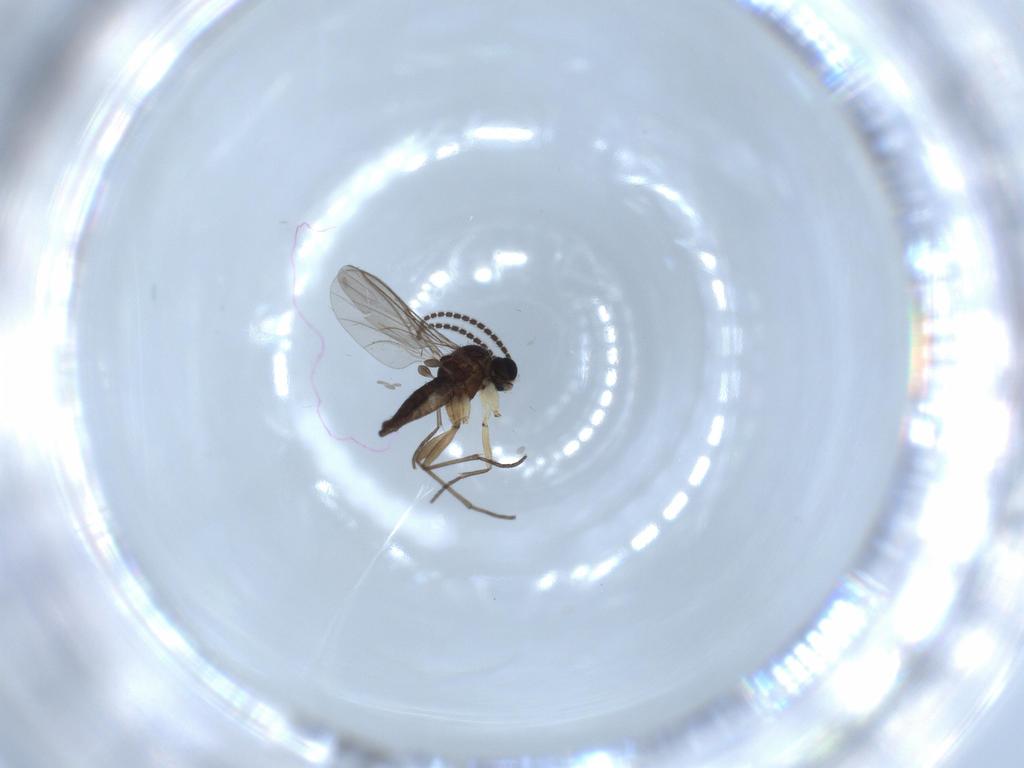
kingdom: Animalia
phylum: Arthropoda
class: Insecta
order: Diptera
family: Sciaridae
